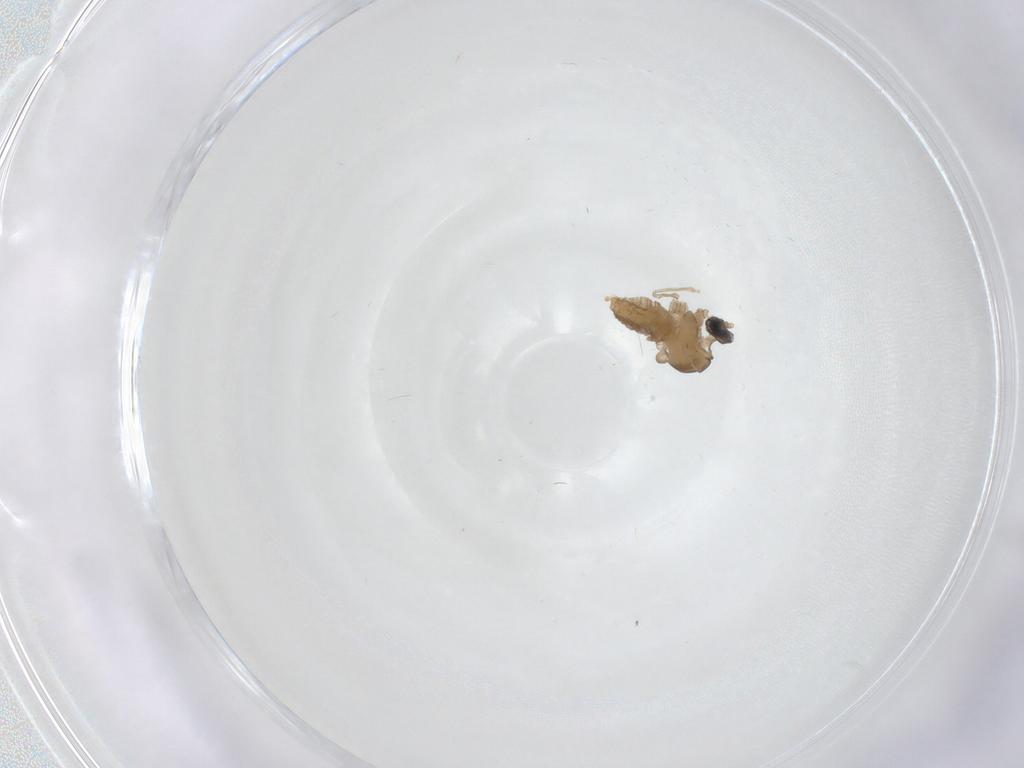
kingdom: Animalia
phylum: Arthropoda
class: Insecta
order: Diptera
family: Cecidomyiidae
